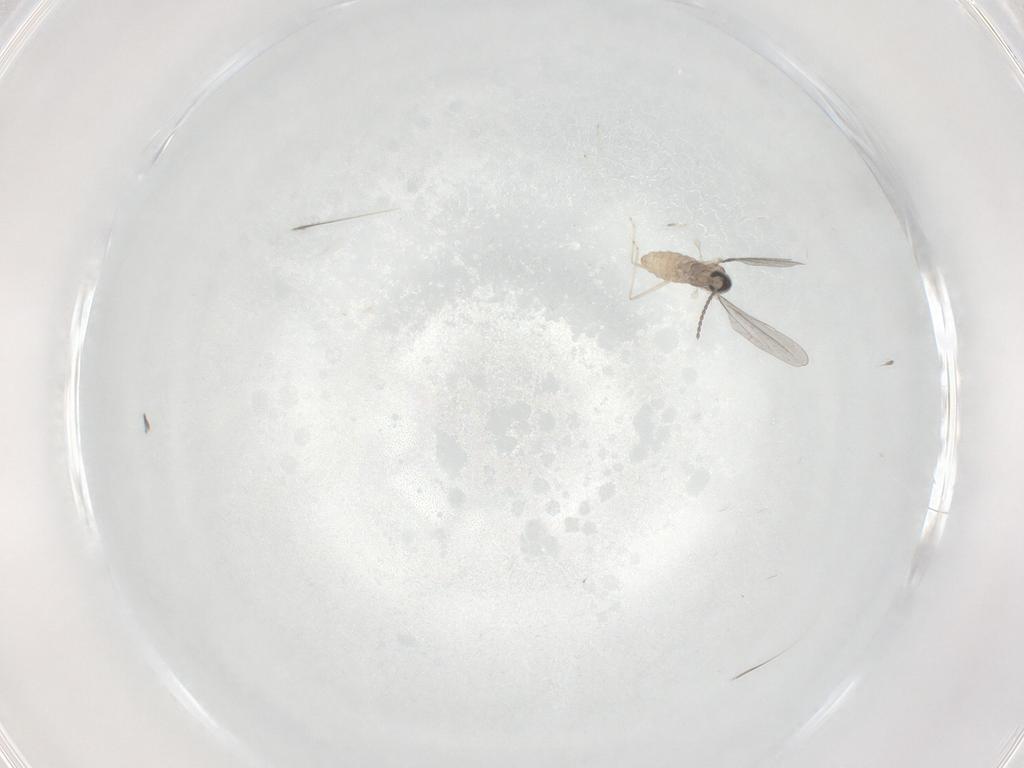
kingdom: Animalia
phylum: Arthropoda
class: Insecta
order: Diptera
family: Cecidomyiidae
